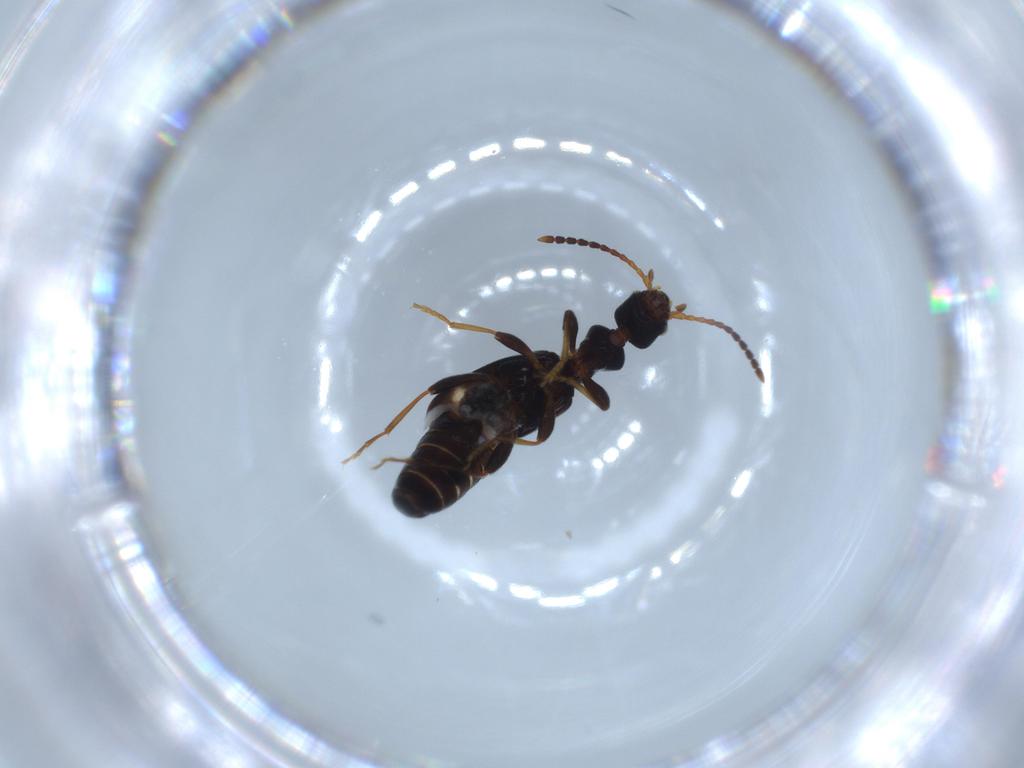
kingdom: Animalia
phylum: Arthropoda
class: Insecta
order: Coleoptera
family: Anthicidae
